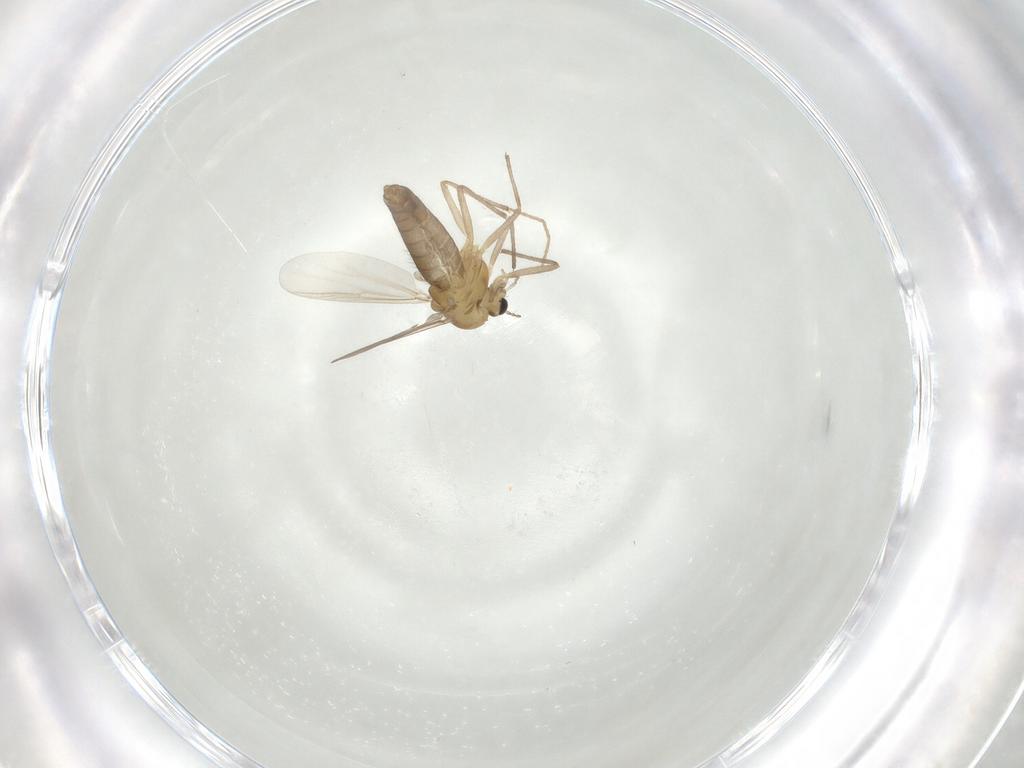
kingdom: Animalia
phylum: Arthropoda
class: Insecta
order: Diptera
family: Chironomidae
